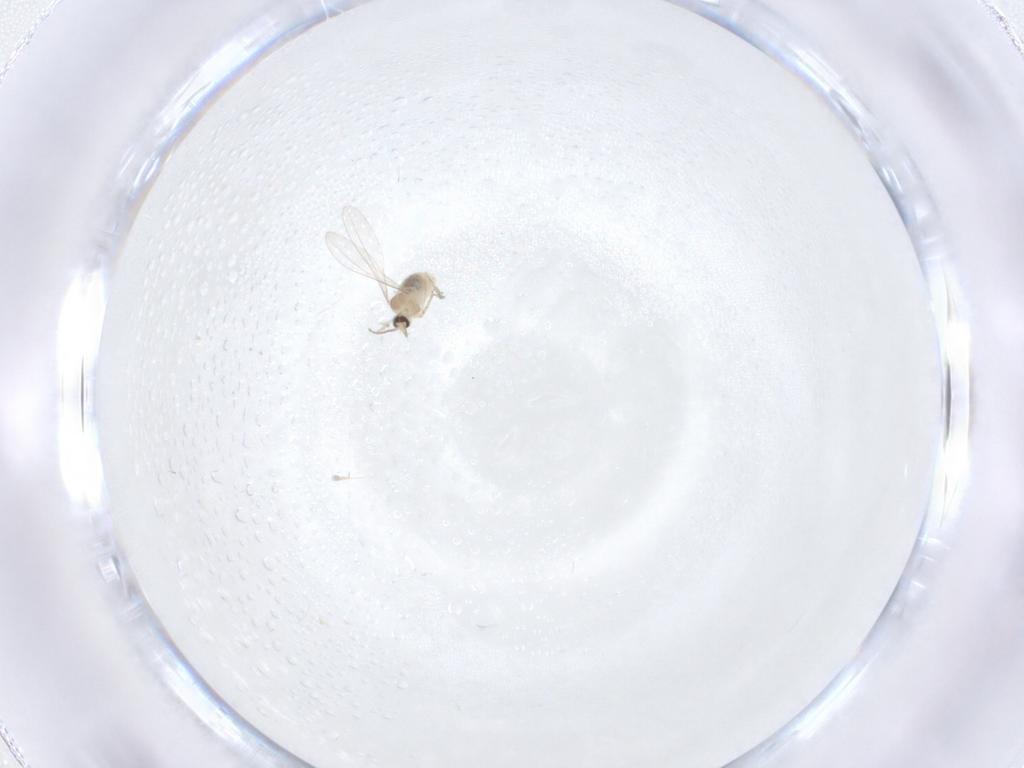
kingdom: Animalia
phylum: Arthropoda
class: Insecta
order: Diptera
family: Cecidomyiidae
